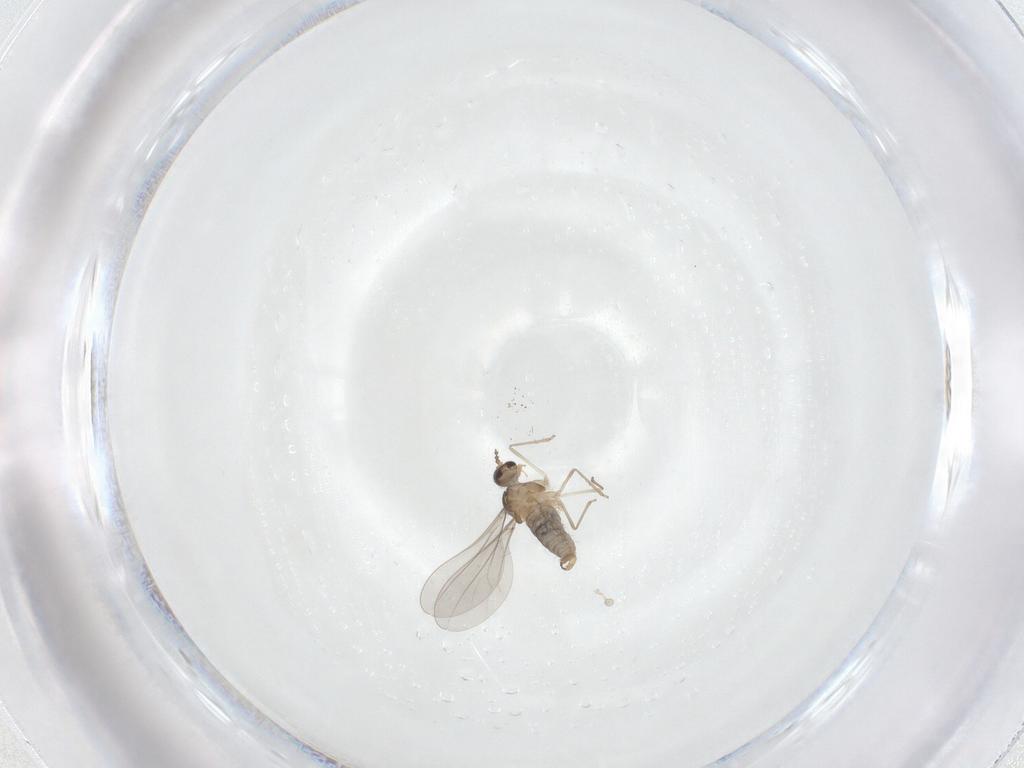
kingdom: Animalia
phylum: Arthropoda
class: Insecta
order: Diptera
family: Cecidomyiidae
